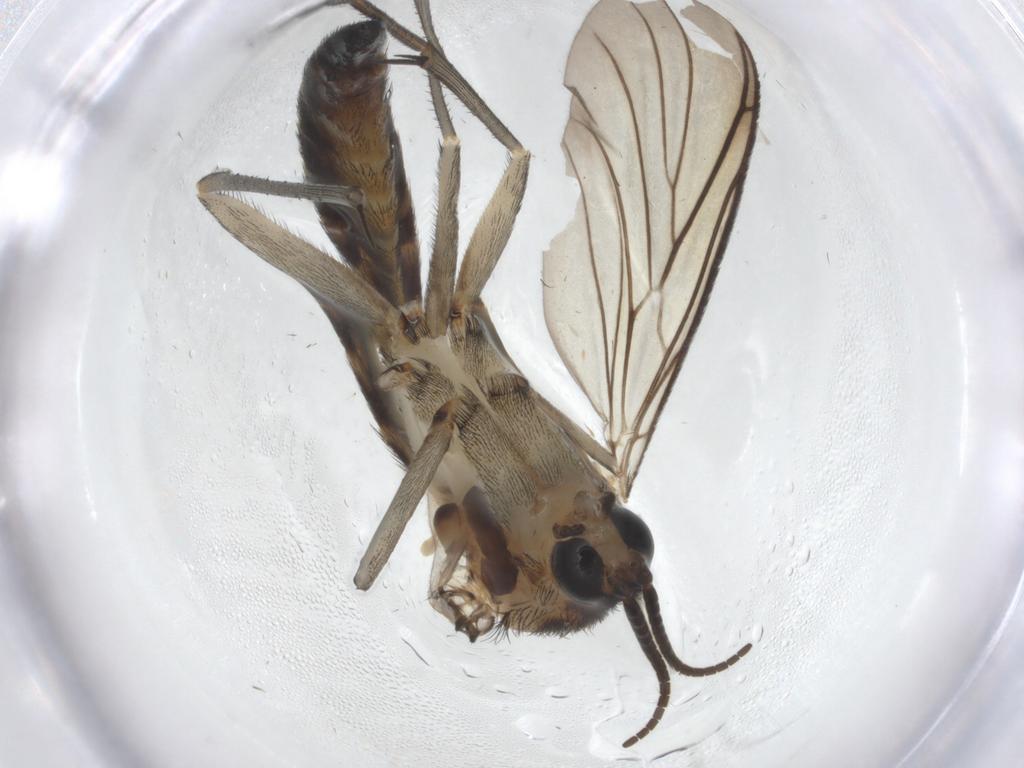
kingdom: Animalia
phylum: Arthropoda
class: Insecta
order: Diptera
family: Keroplatidae
